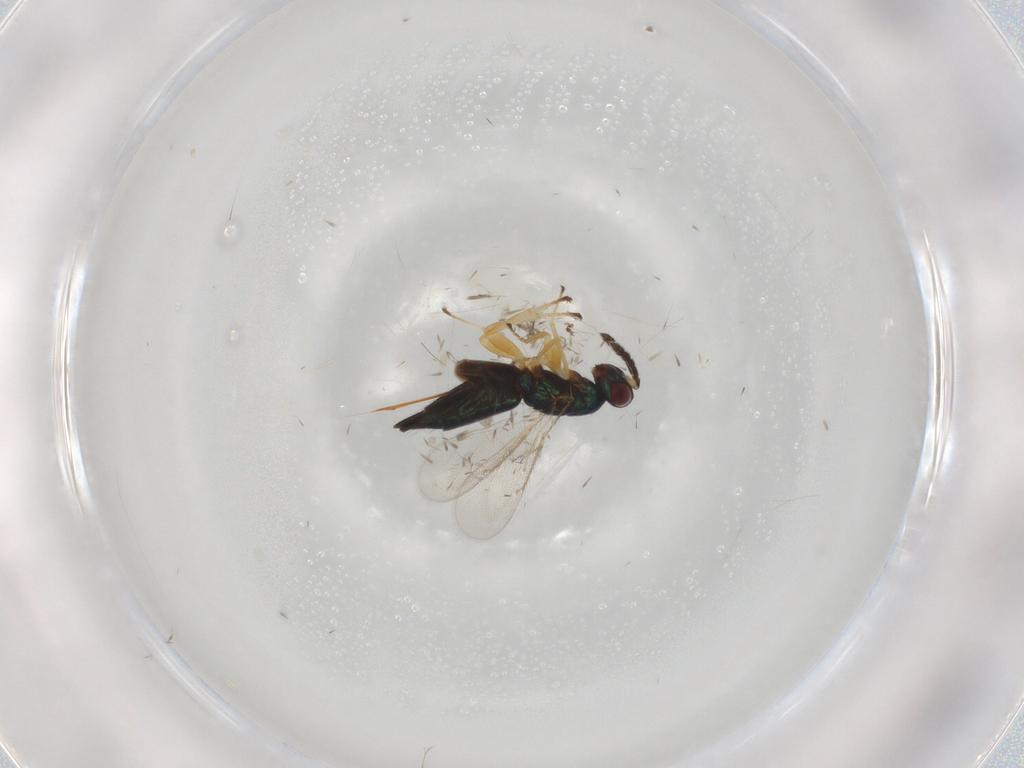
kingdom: Animalia
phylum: Arthropoda
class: Insecta
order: Hymenoptera
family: Eulophidae
